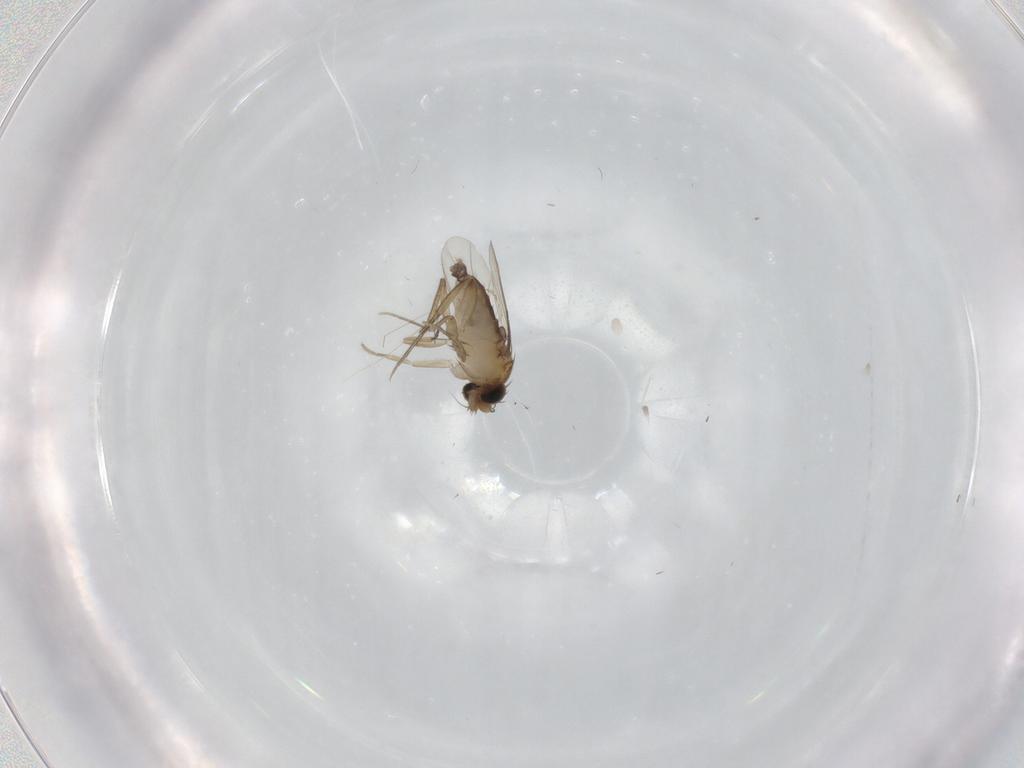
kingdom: Animalia
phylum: Arthropoda
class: Insecta
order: Diptera
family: Phoridae
